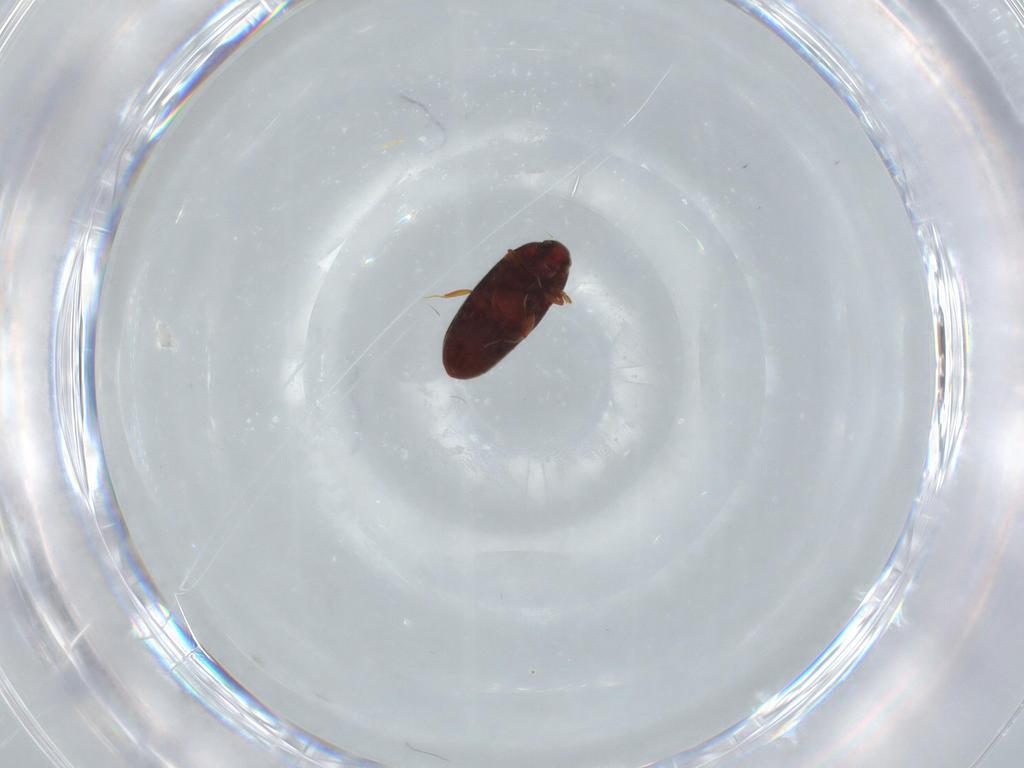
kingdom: Animalia
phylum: Arthropoda
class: Insecta
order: Coleoptera
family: Throscidae
